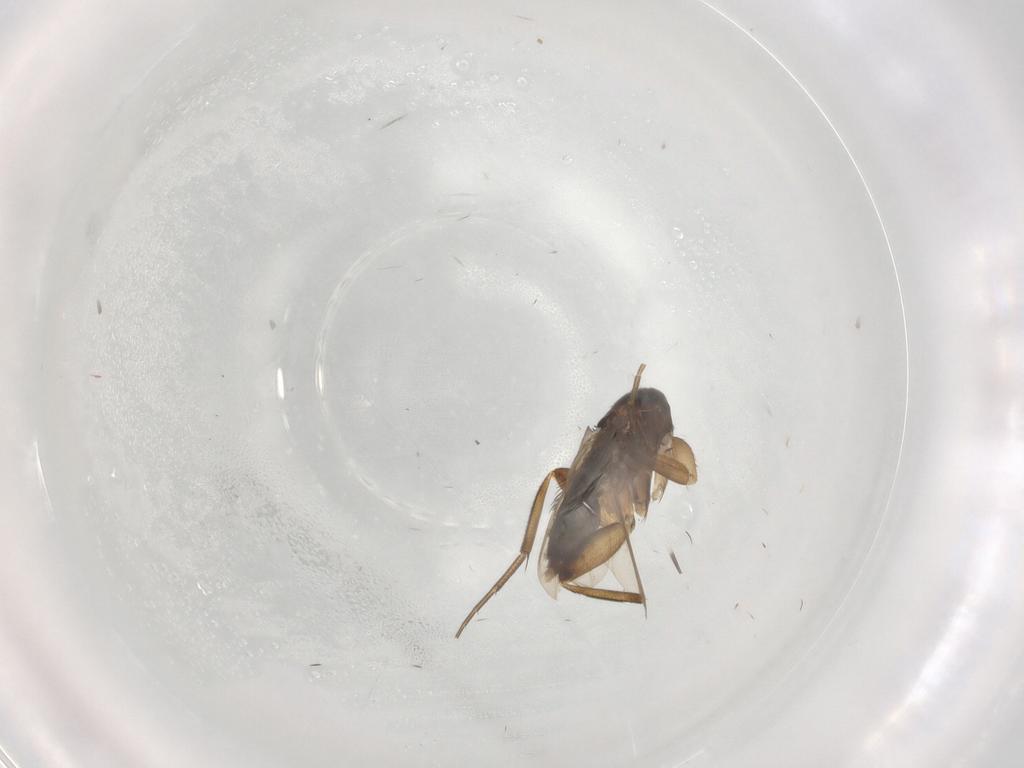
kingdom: Animalia
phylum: Arthropoda
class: Insecta
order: Diptera
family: Phoridae
